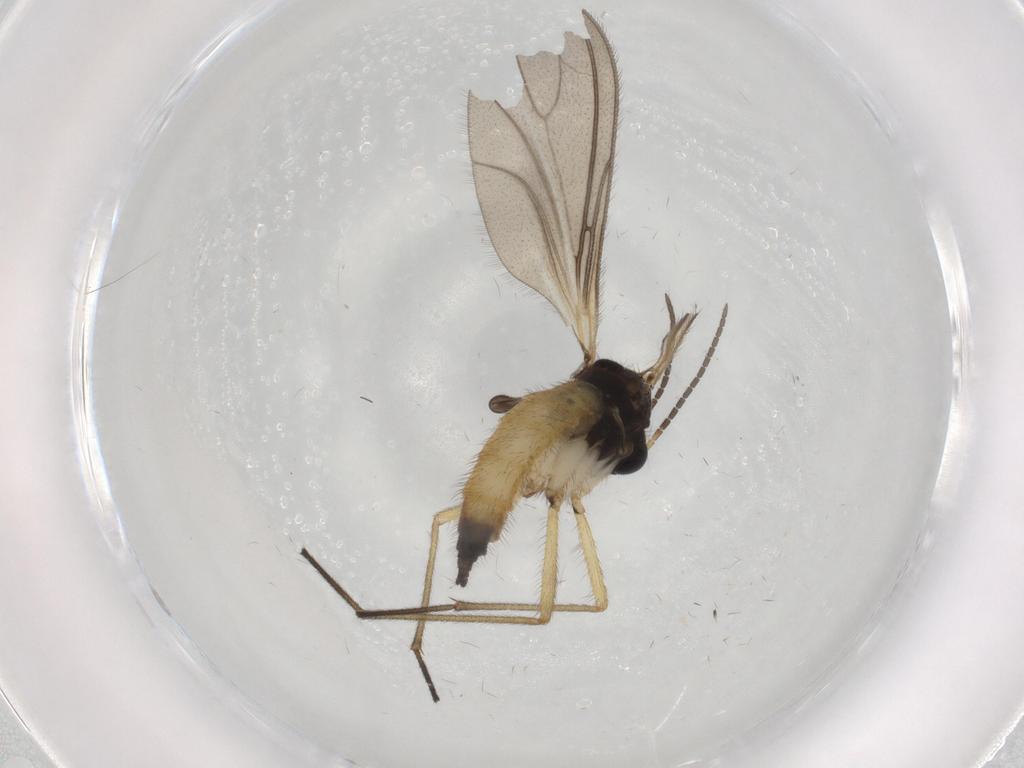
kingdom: Animalia
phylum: Arthropoda
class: Insecta
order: Diptera
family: Sciaridae
